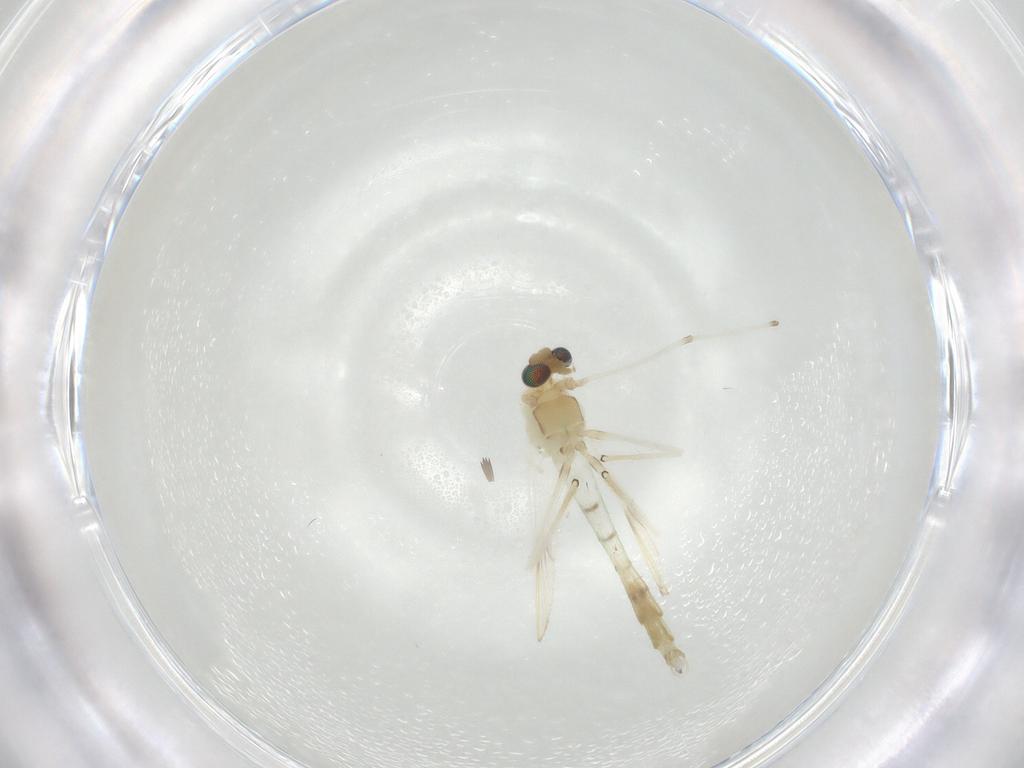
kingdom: Animalia
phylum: Arthropoda
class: Insecta
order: Diptera
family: Chironomidae
